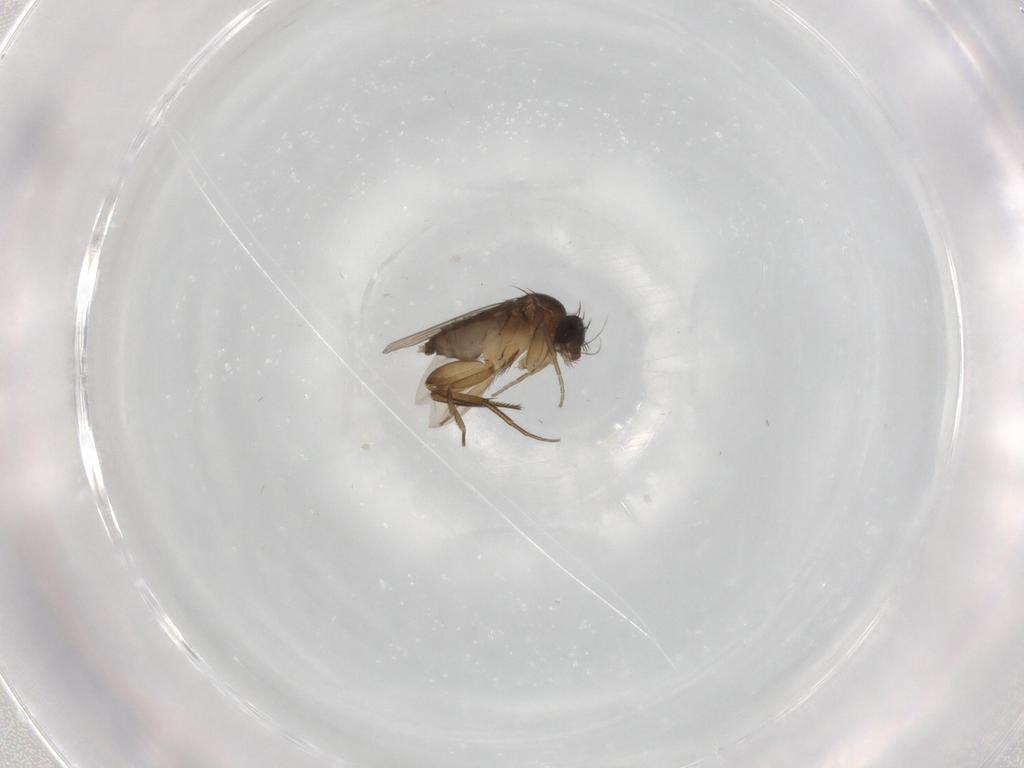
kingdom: Animalia
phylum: Arthropoda
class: Insecta
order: Diptera
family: Phoridae
